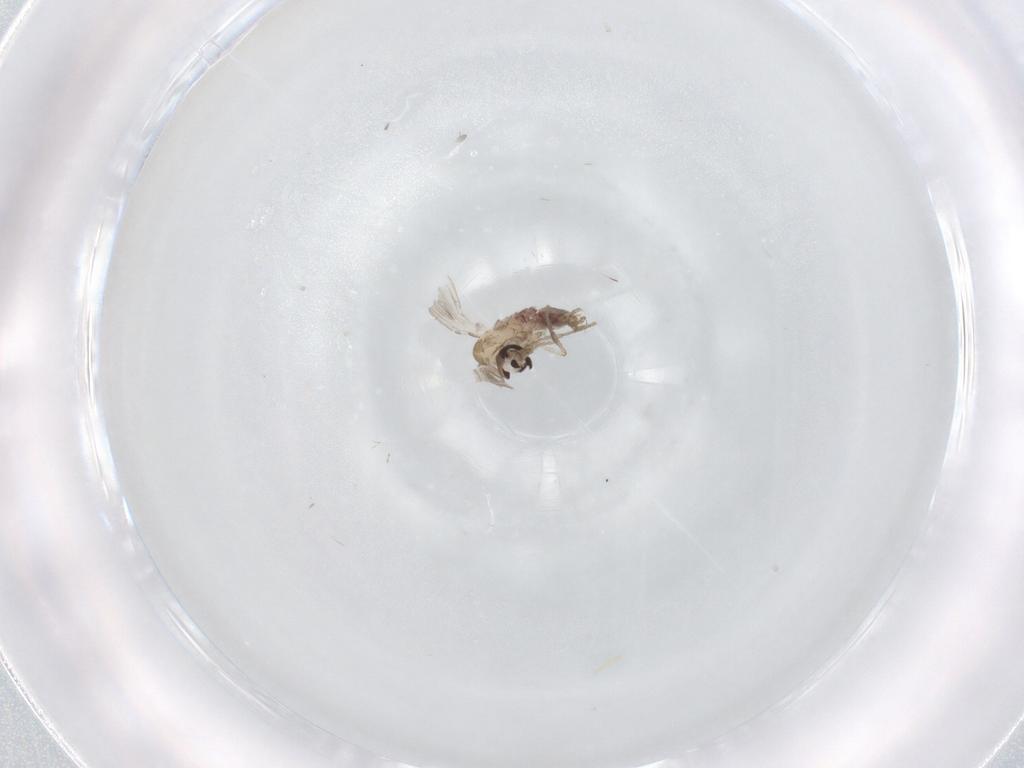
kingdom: Animalia
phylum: Arthropoda
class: Insecta
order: Diptera
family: Psychodidae
